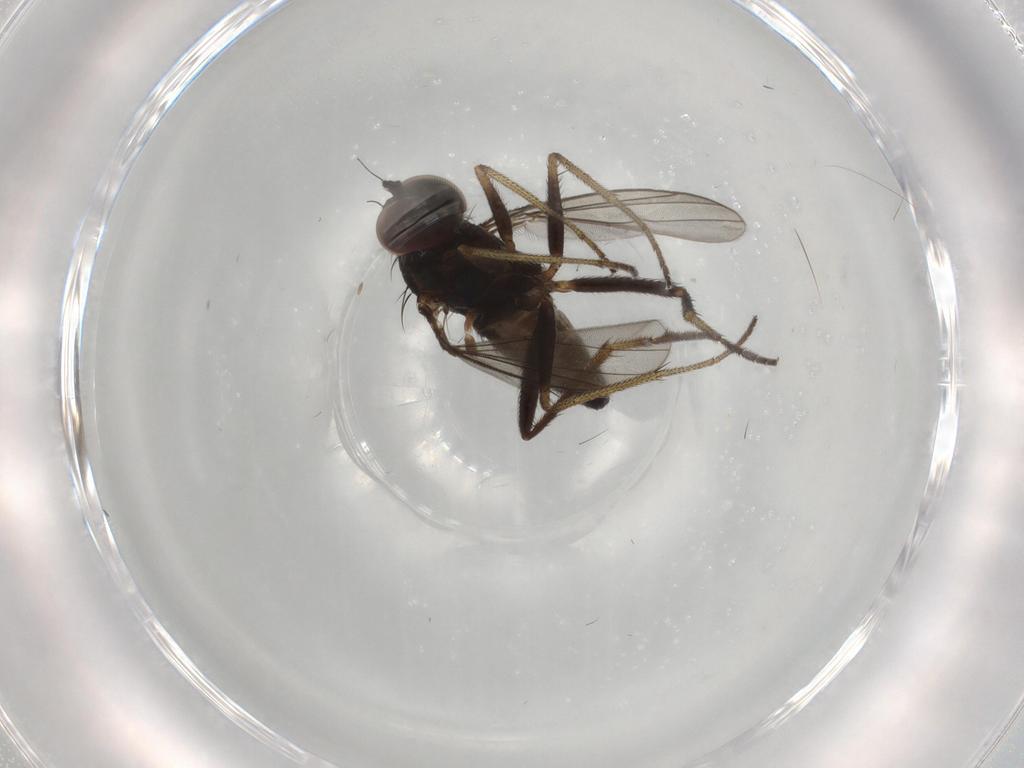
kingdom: Animalia
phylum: Arthropoda
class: Insecta
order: Diptera
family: Dolichopodidae
